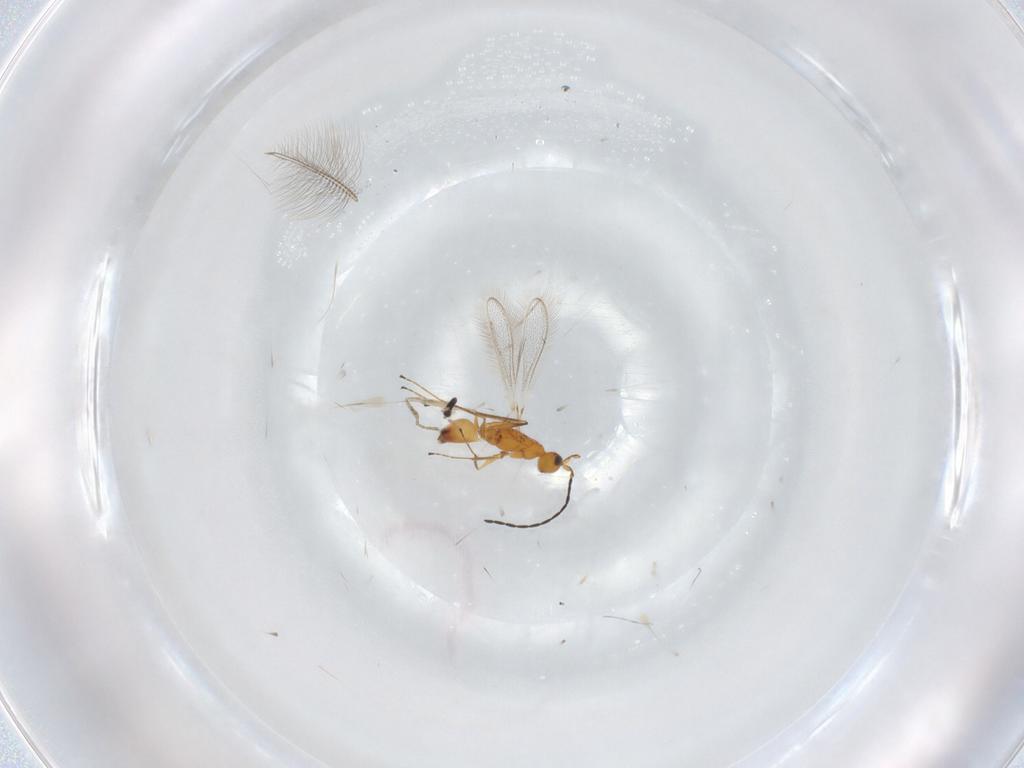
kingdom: Animalia
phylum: Arthropoda
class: Insecta
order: Hymenoptera
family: Mymaridae
